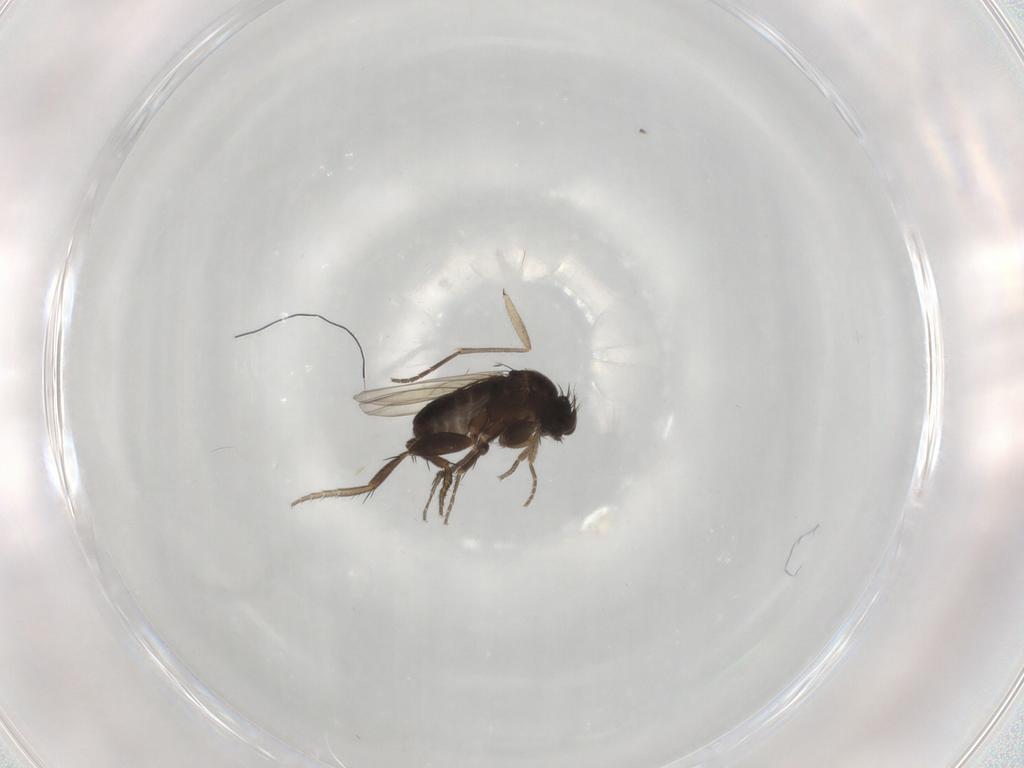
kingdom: Animalia
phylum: Arthropoda
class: Insecta
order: Diptera
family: Phoridae
